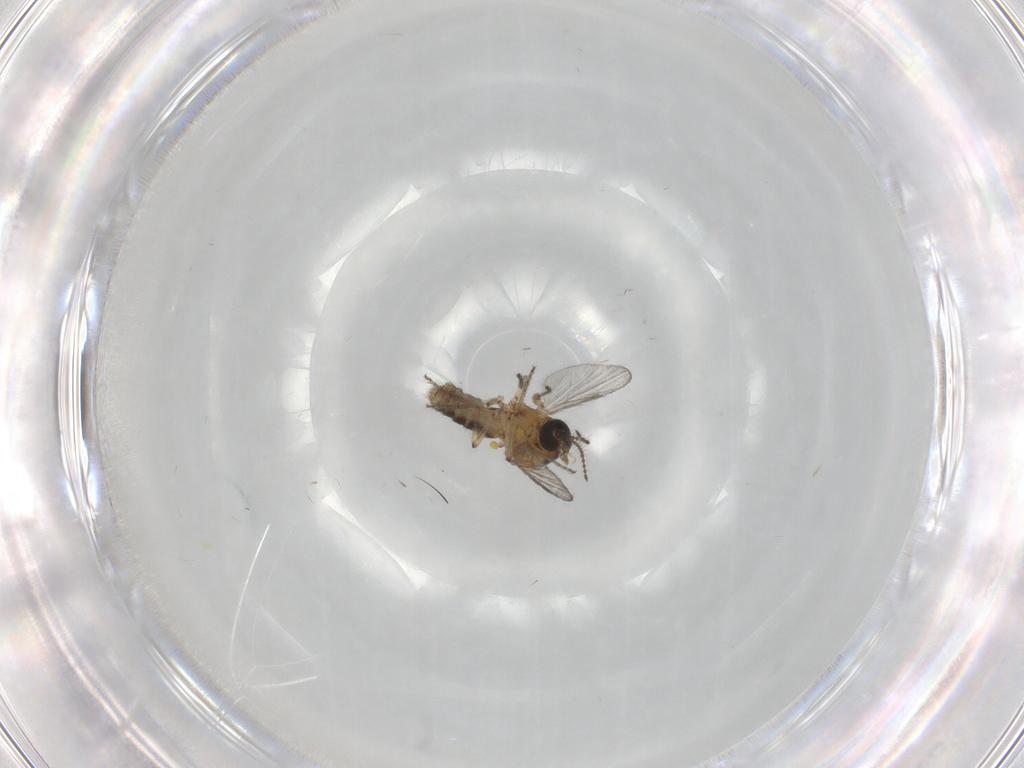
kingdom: Animalia
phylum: Arthropoda
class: Insecta
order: Diptera
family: Ceratopogonidae
